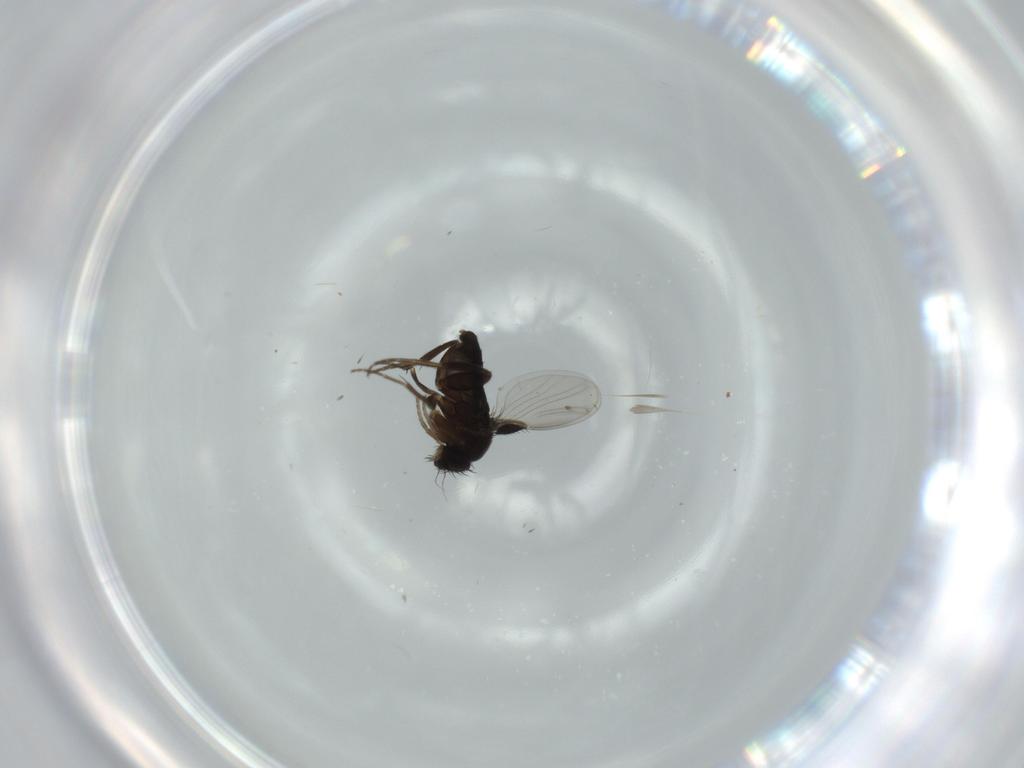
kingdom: Animalia
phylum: Arthropoda
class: Insecta
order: Diptera
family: Phoridae
